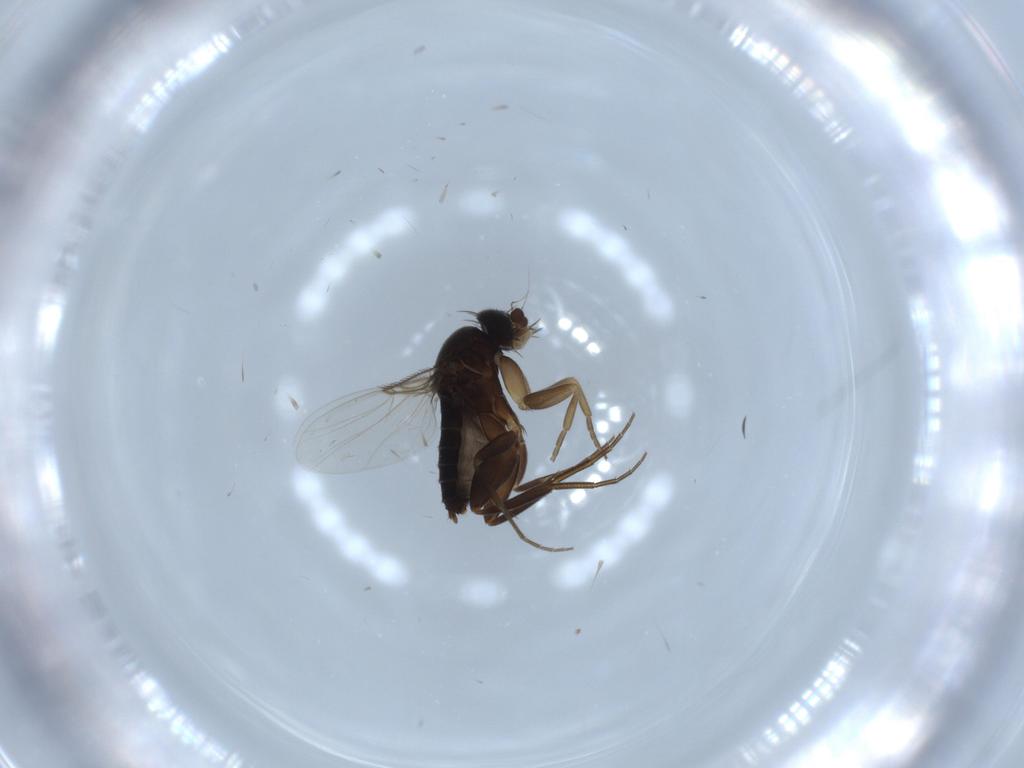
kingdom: Animalia
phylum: Arthropoda
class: Insecta
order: Diptera
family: Phoridae
